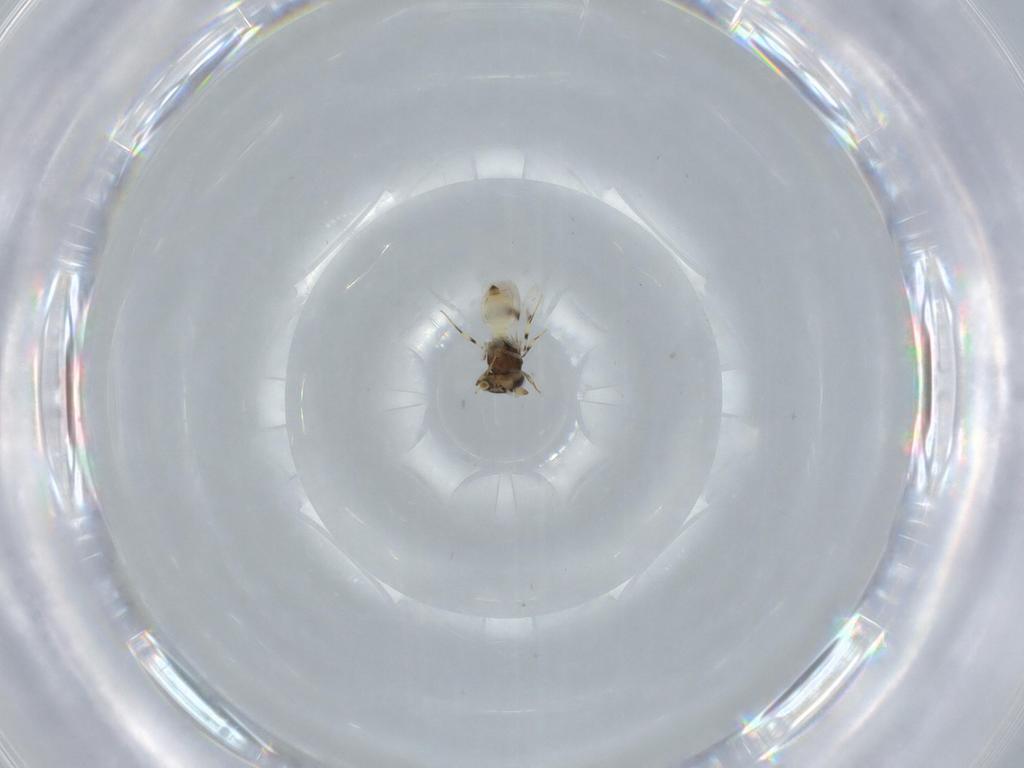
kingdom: Animalia
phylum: Arthropoda
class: Insecta
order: Hymenoptera
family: Scelionidae
